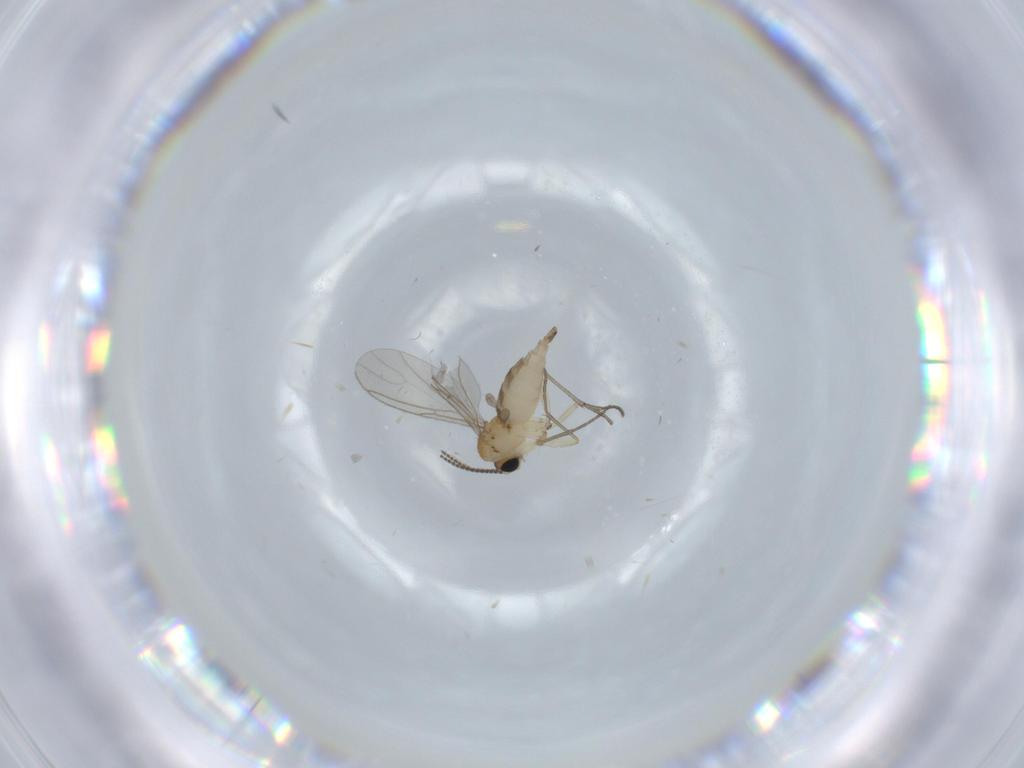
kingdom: Animalia
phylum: Arthropoda
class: Insecta
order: Diptera
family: Sciaridae
